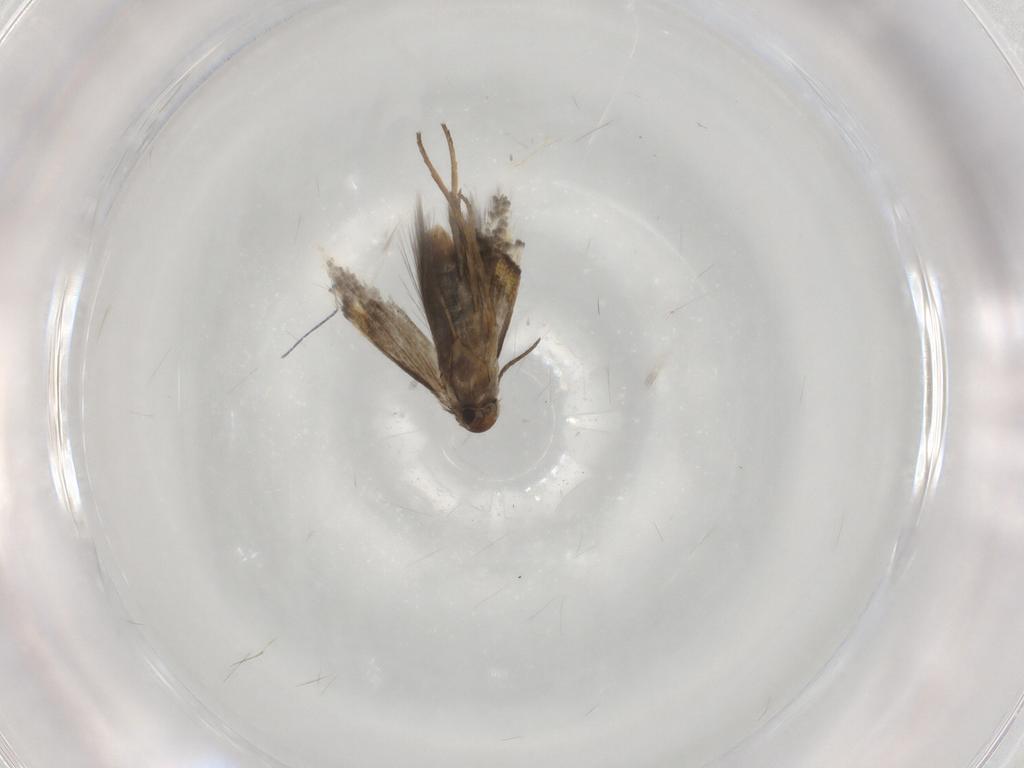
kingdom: Animalia
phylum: Arthropoda
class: Insecta
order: Lepidoptera
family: Heliozelidae
